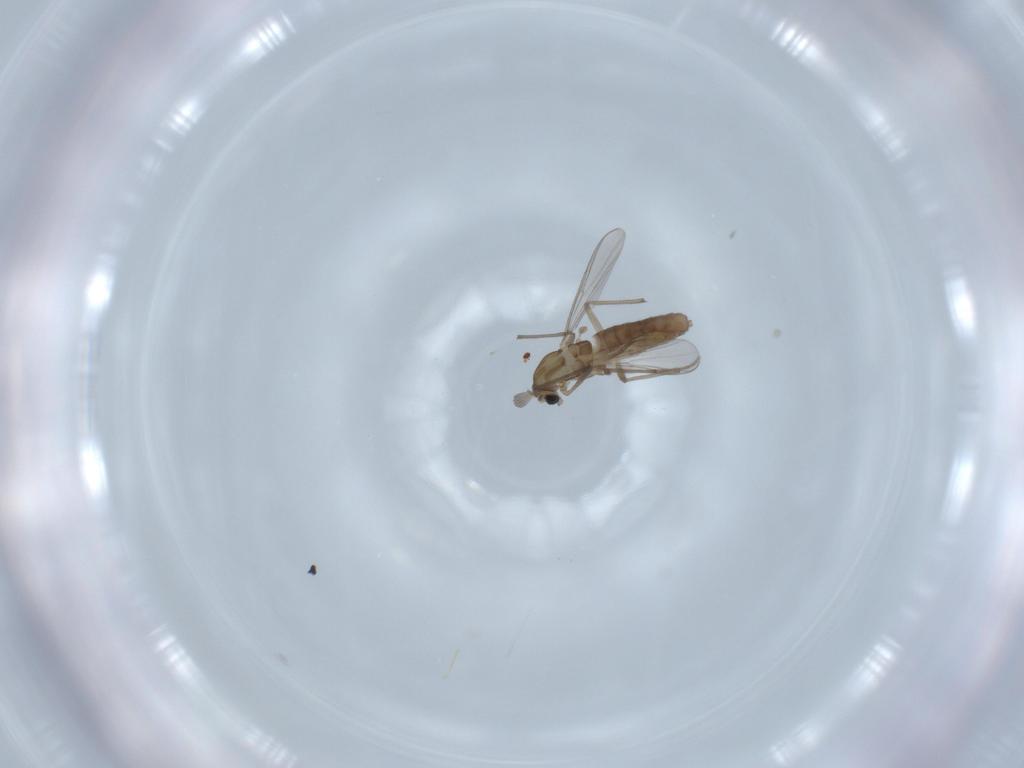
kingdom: Animalia
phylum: Arthropoda
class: Insecta
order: Diptera
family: Chironomidae
